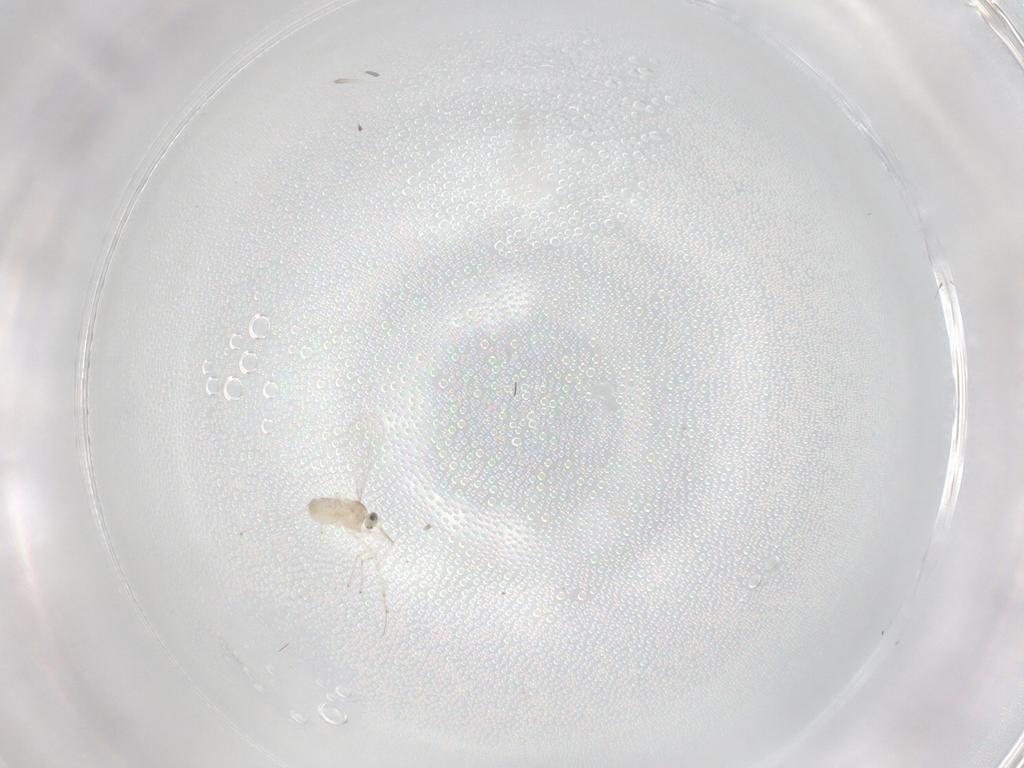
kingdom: Animalia
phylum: Arthropoda
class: Insecta
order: Diptera
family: Cecidomyiidae
